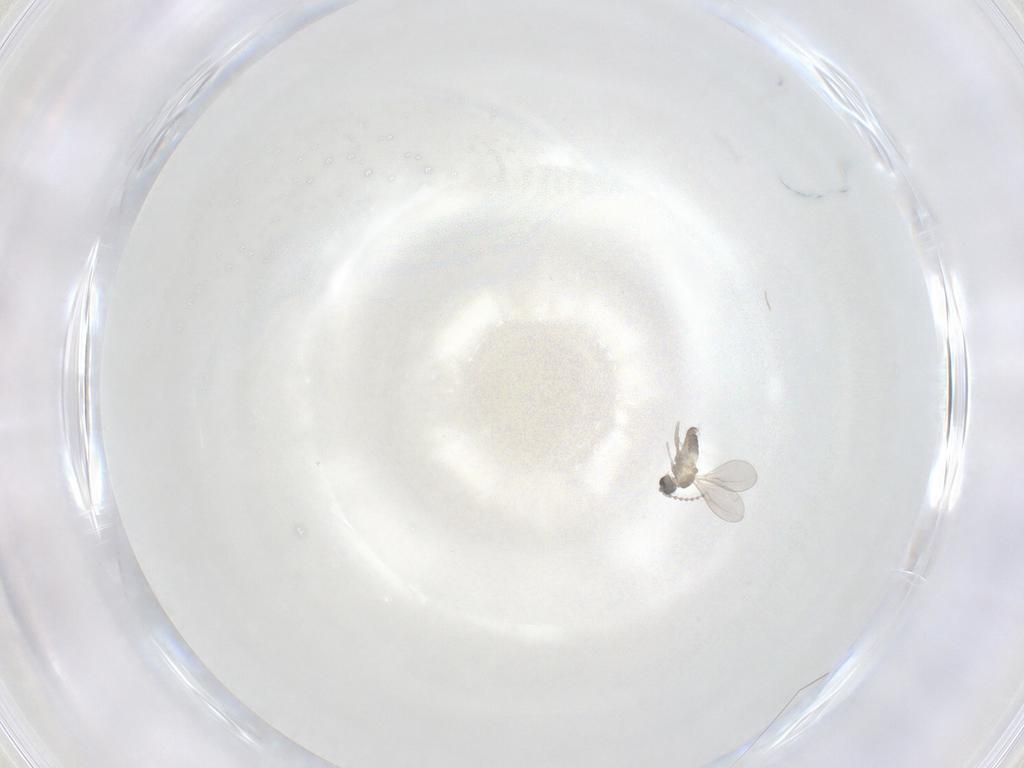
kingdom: Animalia
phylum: Arthropoda
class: Insecta
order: Diptera
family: Cecidomyiidae
